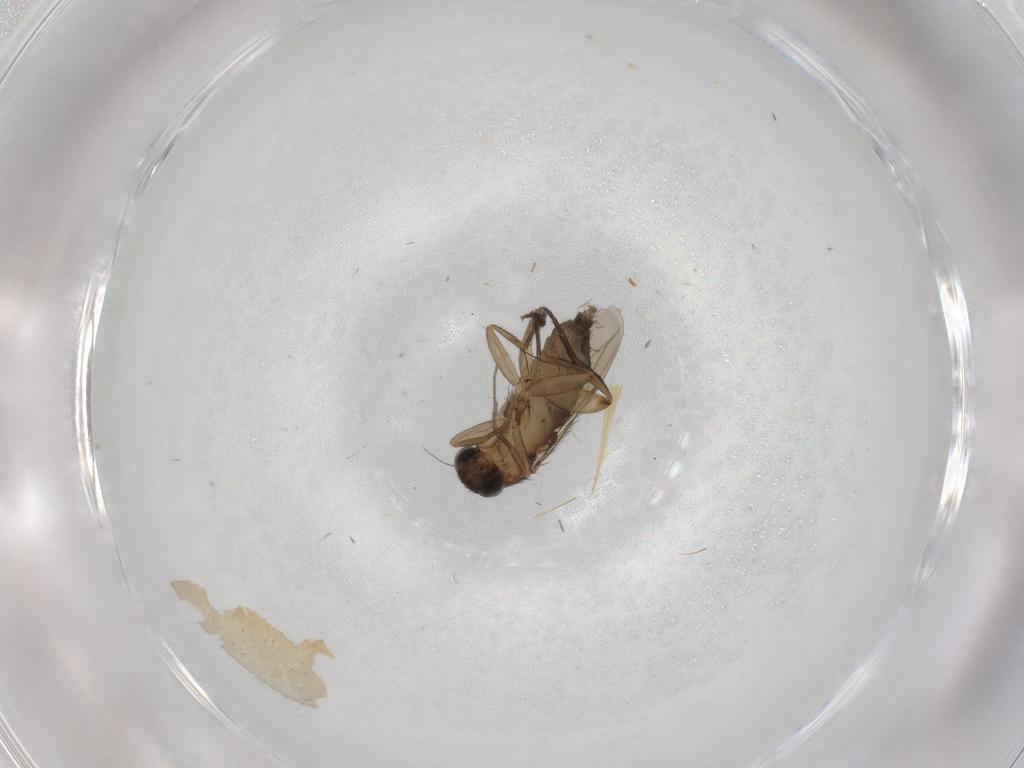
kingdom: Animalia
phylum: Arthropoda
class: Insecta
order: Diptera
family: Phoridae
